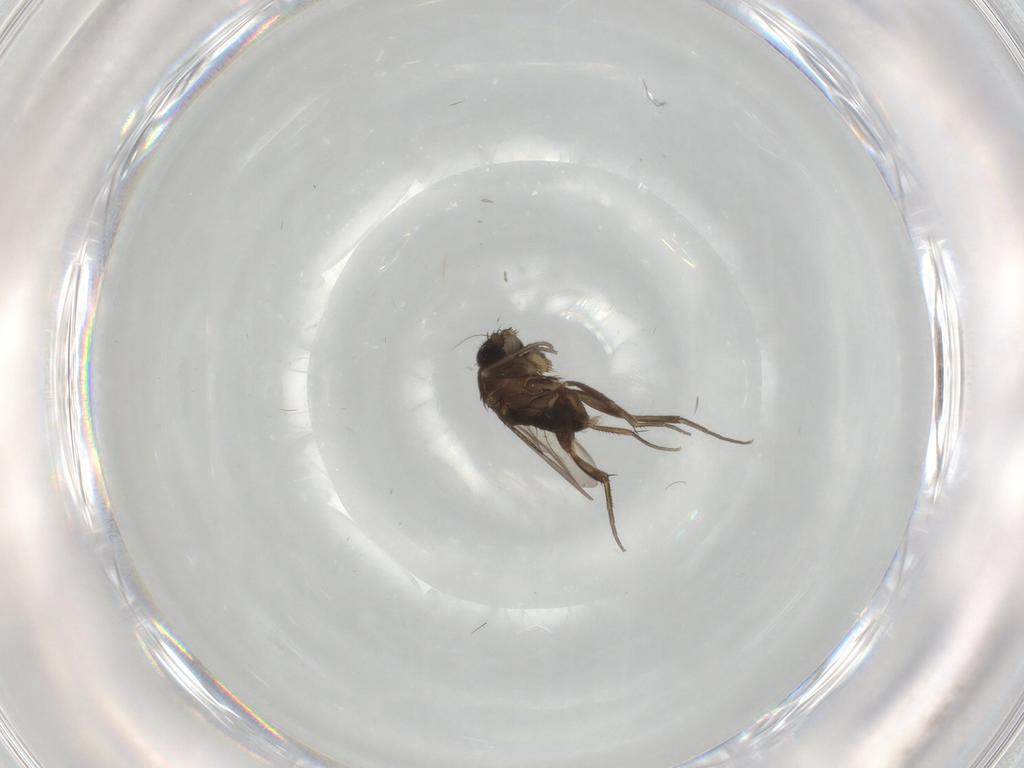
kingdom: Animalia
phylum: Arthropoda
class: Insecta
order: Diptera
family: Phoridae
